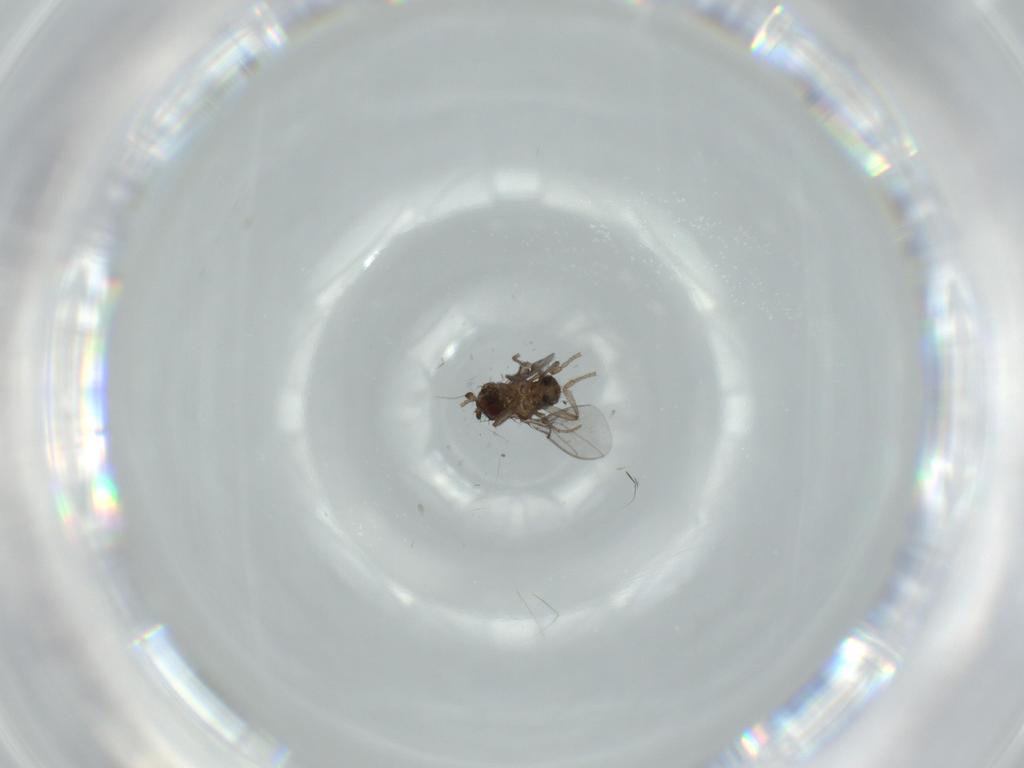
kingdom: Animalia
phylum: Arthropoda
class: Insecta
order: Diptera
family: Sphaeroceridae
